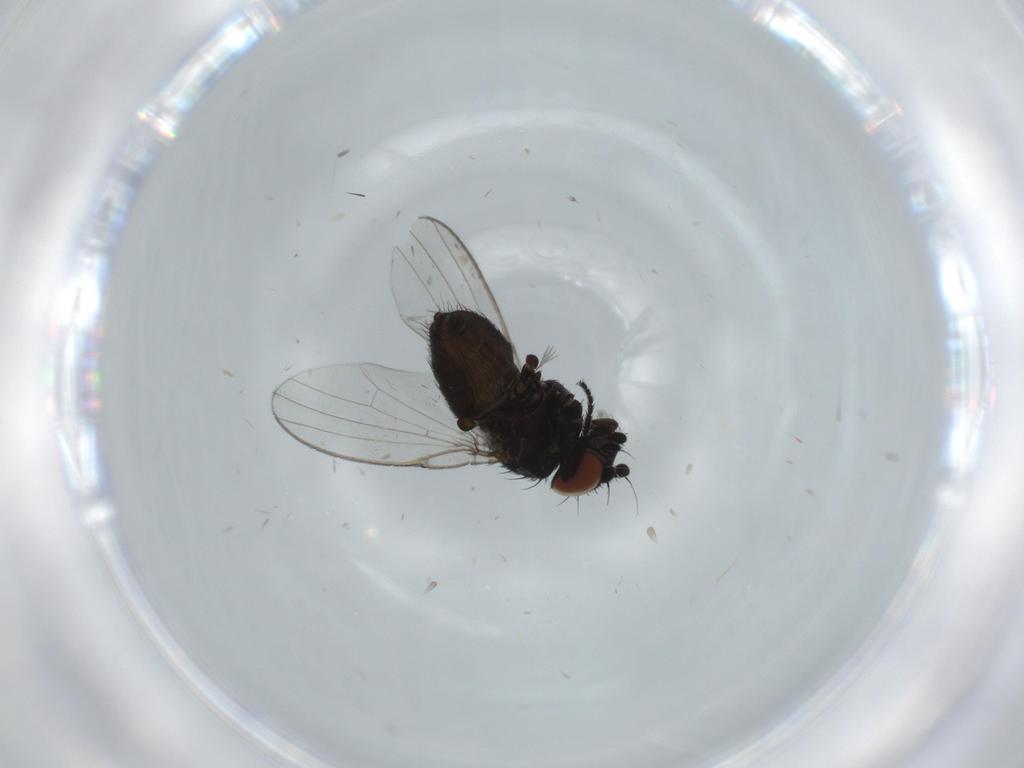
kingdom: Animalia
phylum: Arthropoda
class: Insecta
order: Diptera
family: Milichiidae
